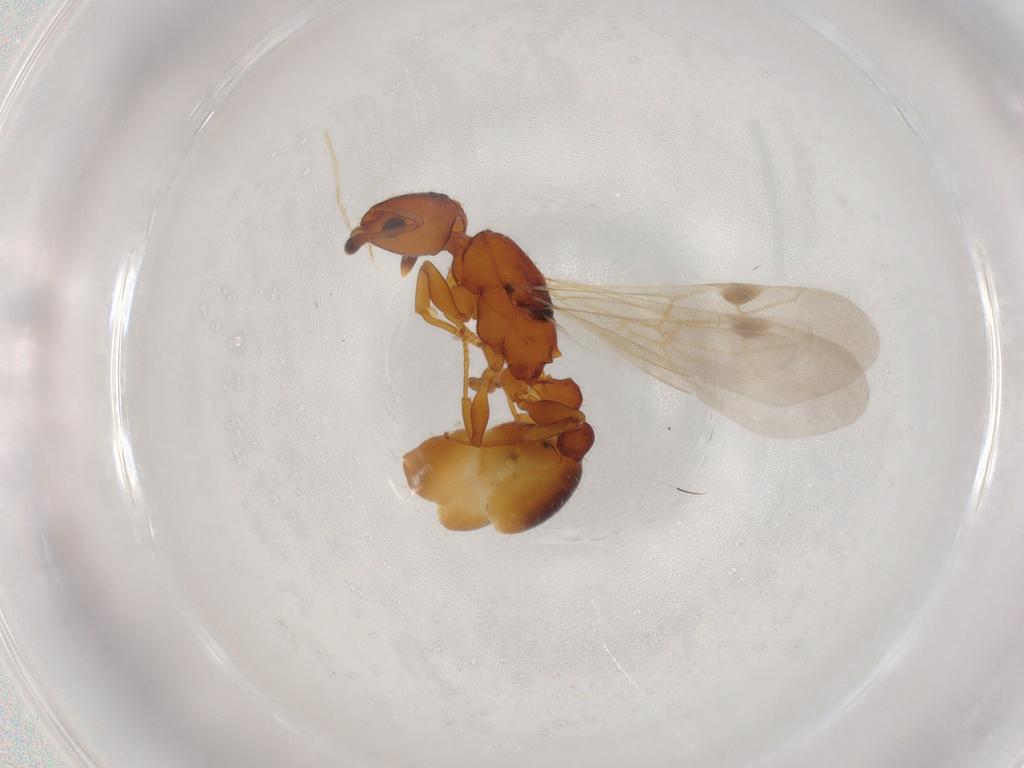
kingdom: Animalia
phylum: Arthropoda
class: Insecta
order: Hymenoptera
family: Formicidae
